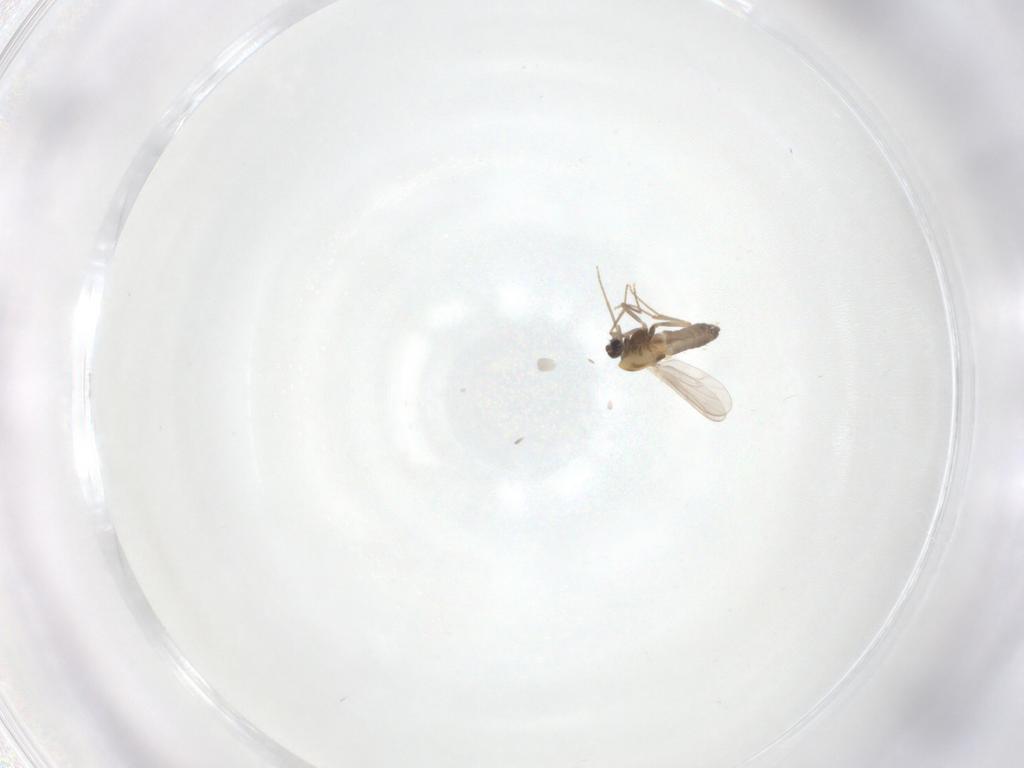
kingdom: Animalia
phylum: Arthropoda
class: Insecta
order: Diptera
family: Chironomidae
